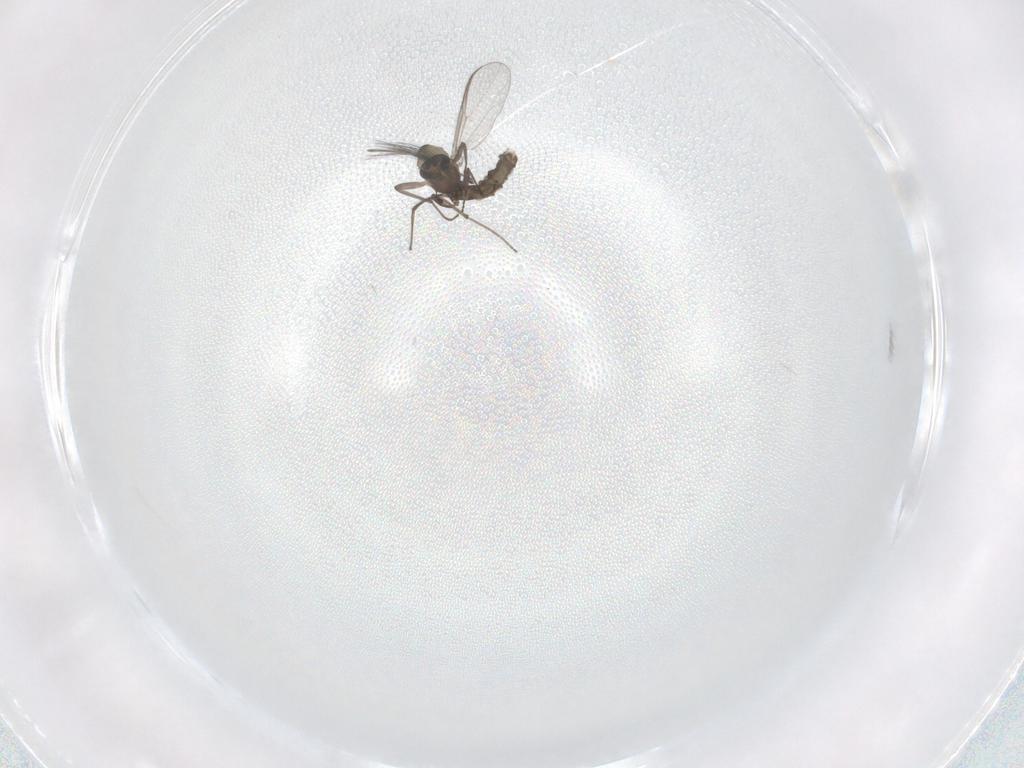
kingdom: Animalia
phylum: Arthropoda
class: Insecta
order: Diptera
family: Chironomidae
